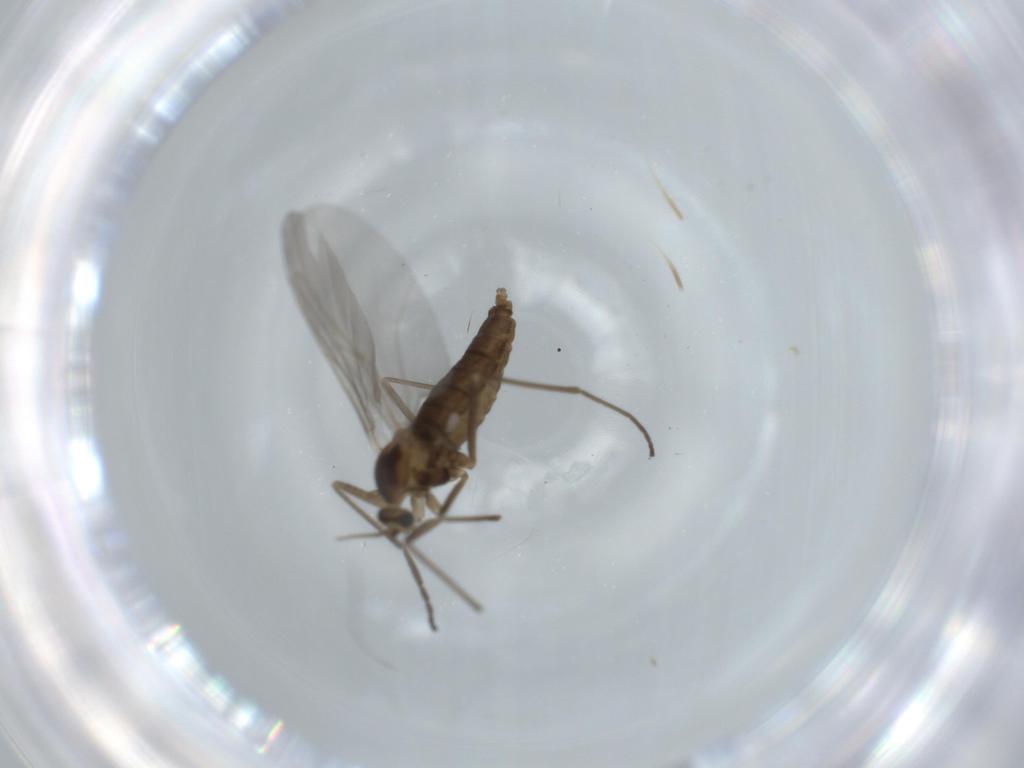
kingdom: Animalia
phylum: Arthropoda
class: Insecta
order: Diptera
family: Cecidomyiidae
